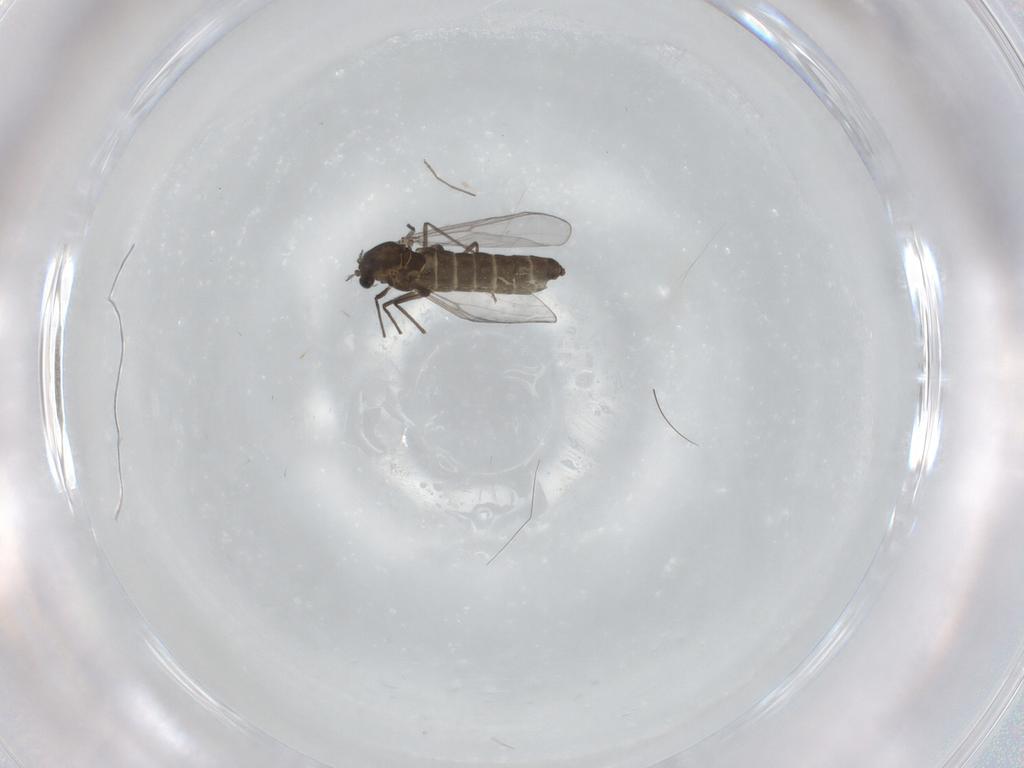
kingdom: Animalia
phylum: Arthropoda
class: Insecta
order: Diptera
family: Chironomidae
